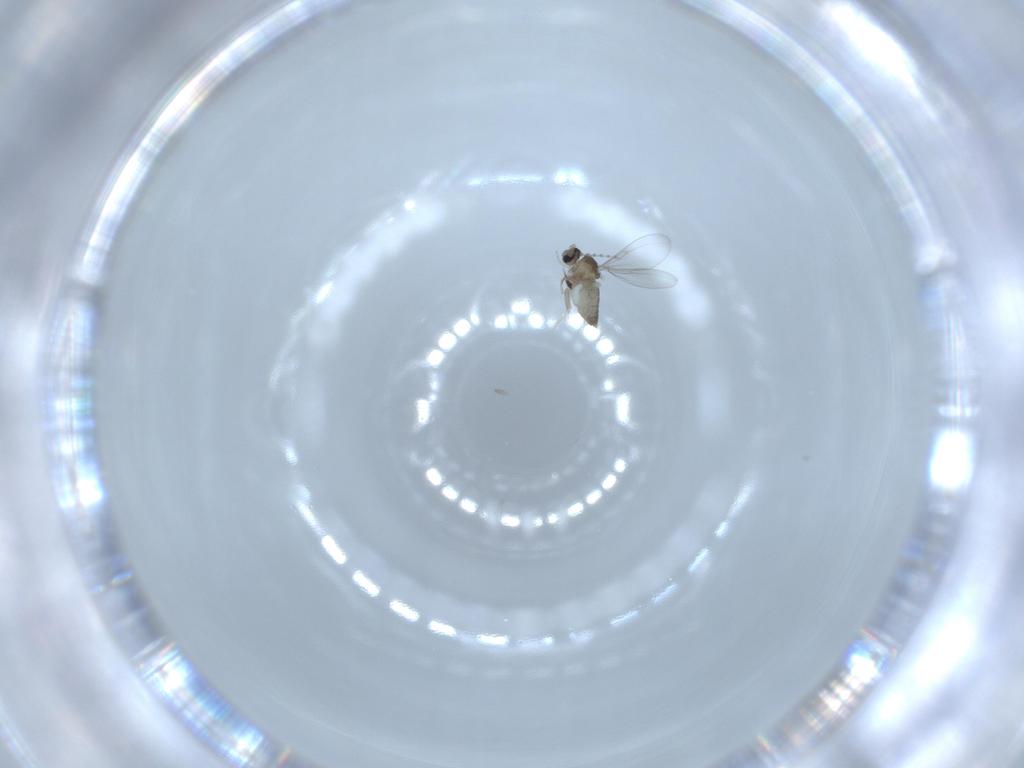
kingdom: Animalia
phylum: Arthropoda
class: Insecta
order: Diptera
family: Cecidomyiidae
